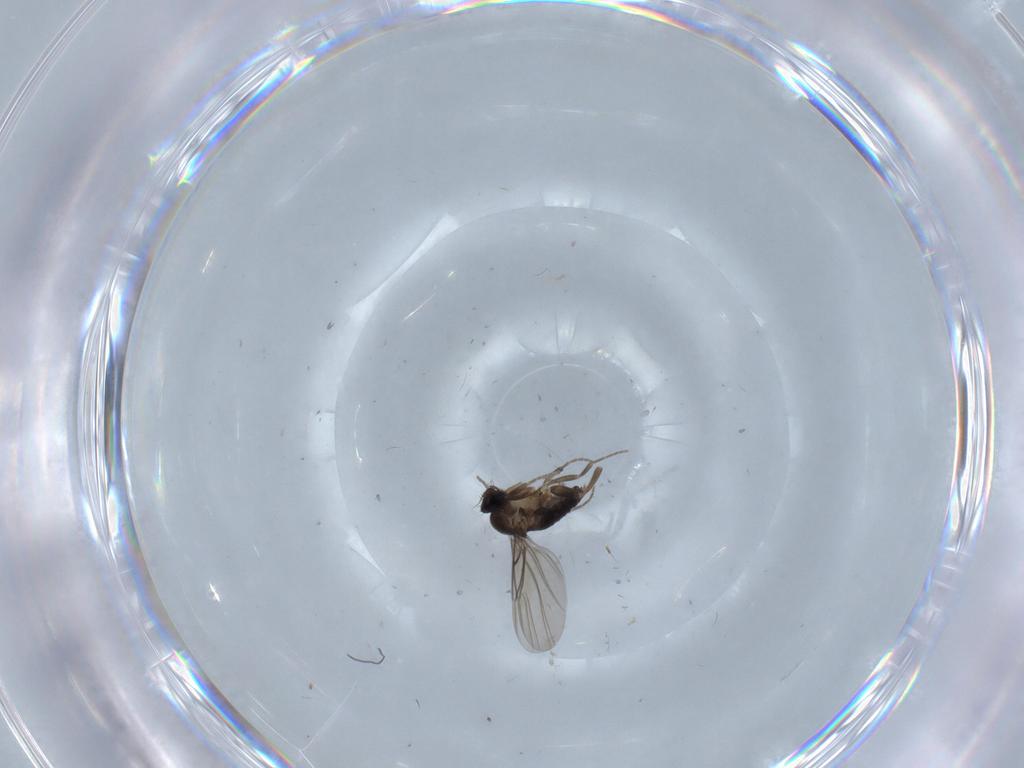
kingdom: Animalia
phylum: Arthropoda
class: Insecta
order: Diptera
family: Phoridae
